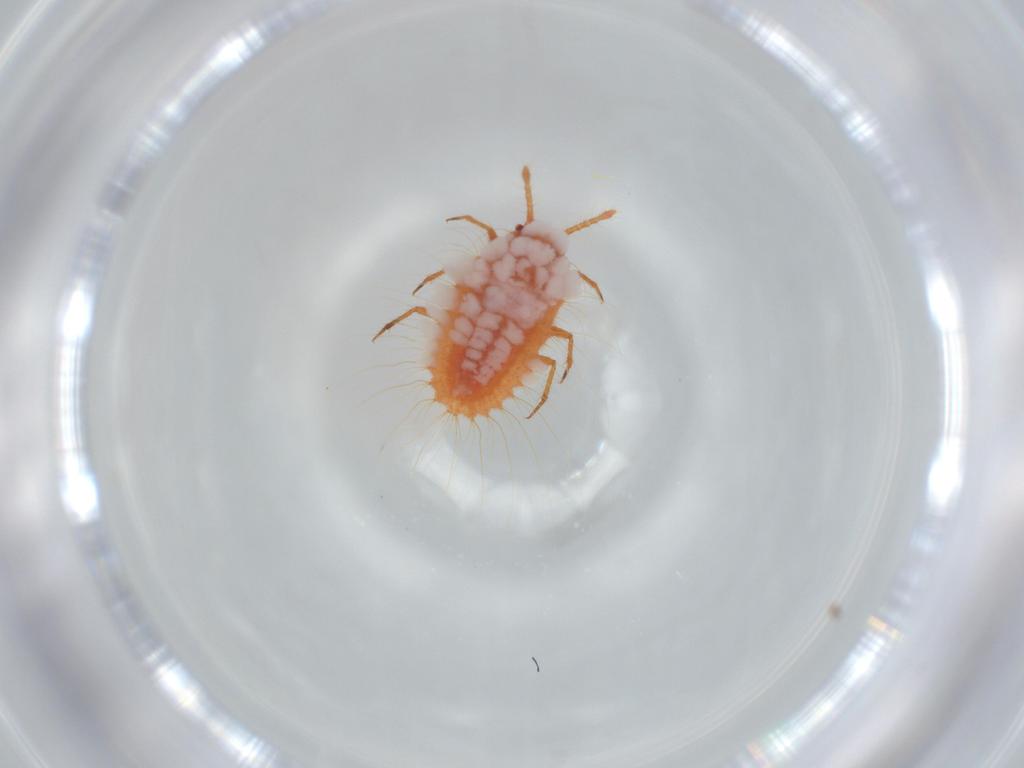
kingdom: Animalia
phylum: Arthropoda
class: Insecta
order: Hemiptera
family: Coccoidea_incertae_sedis
